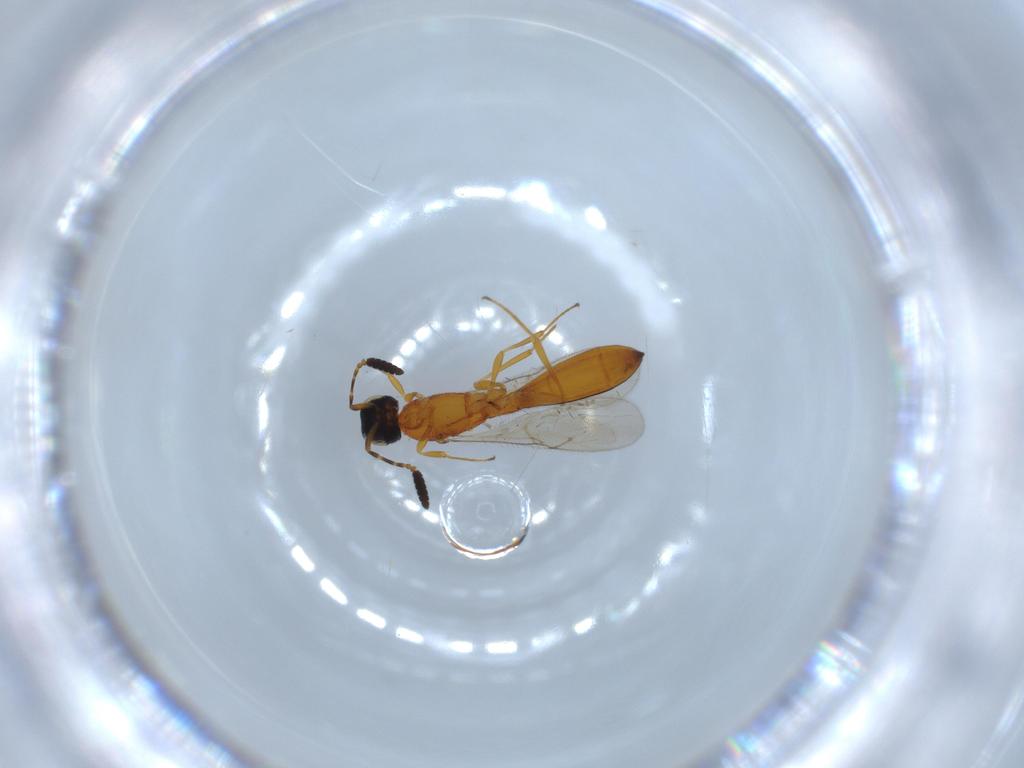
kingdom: Animalia
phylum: Arthropoda
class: Insecta
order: Hymenoptera
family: Scelionidae
